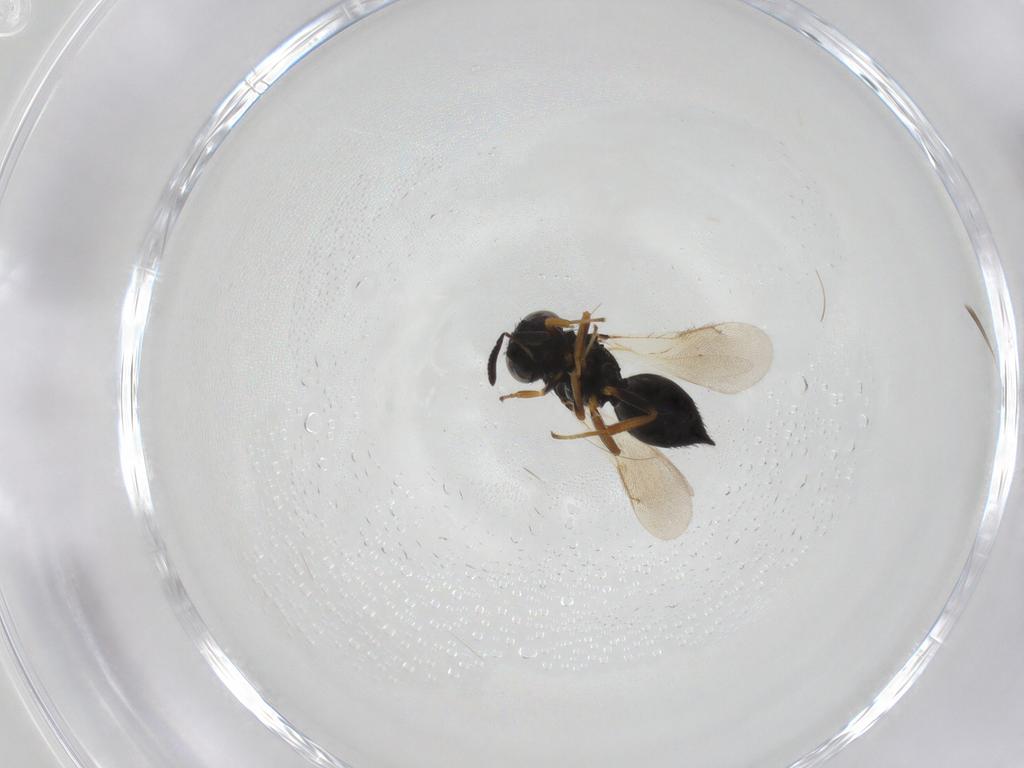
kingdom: Animalia
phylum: Arthropoda
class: Insecta
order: Hymenoptera
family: Pteromalidae
